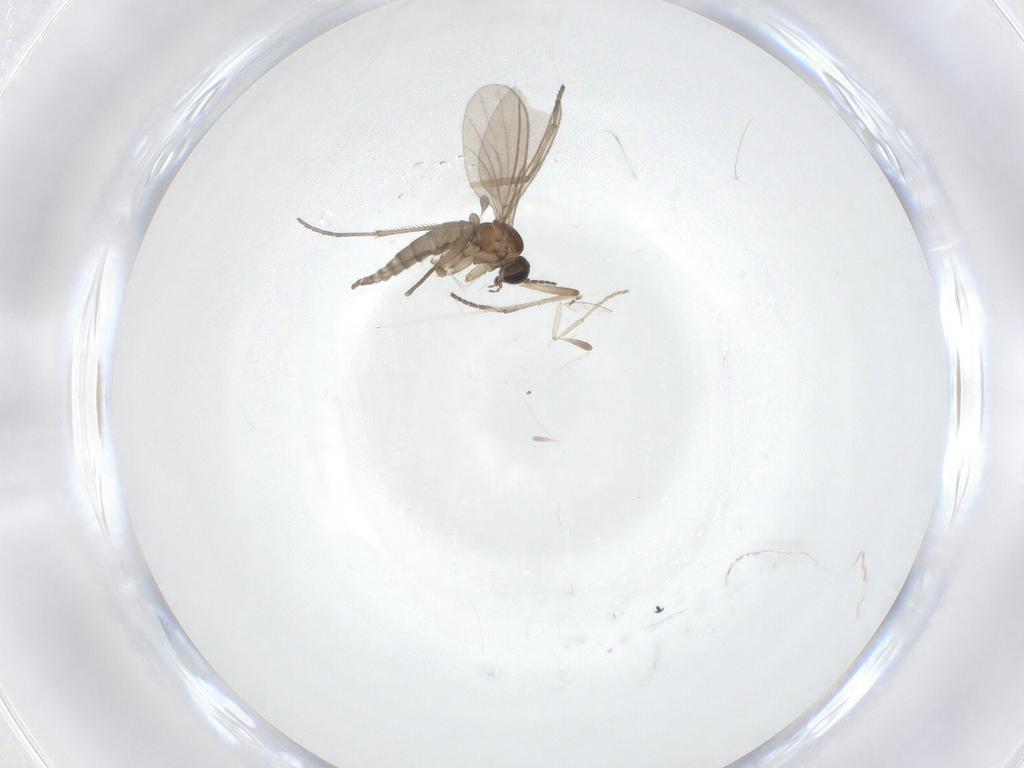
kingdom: Animalia
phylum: Arthropoda
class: Insecta
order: Diptera
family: Sciaridae
